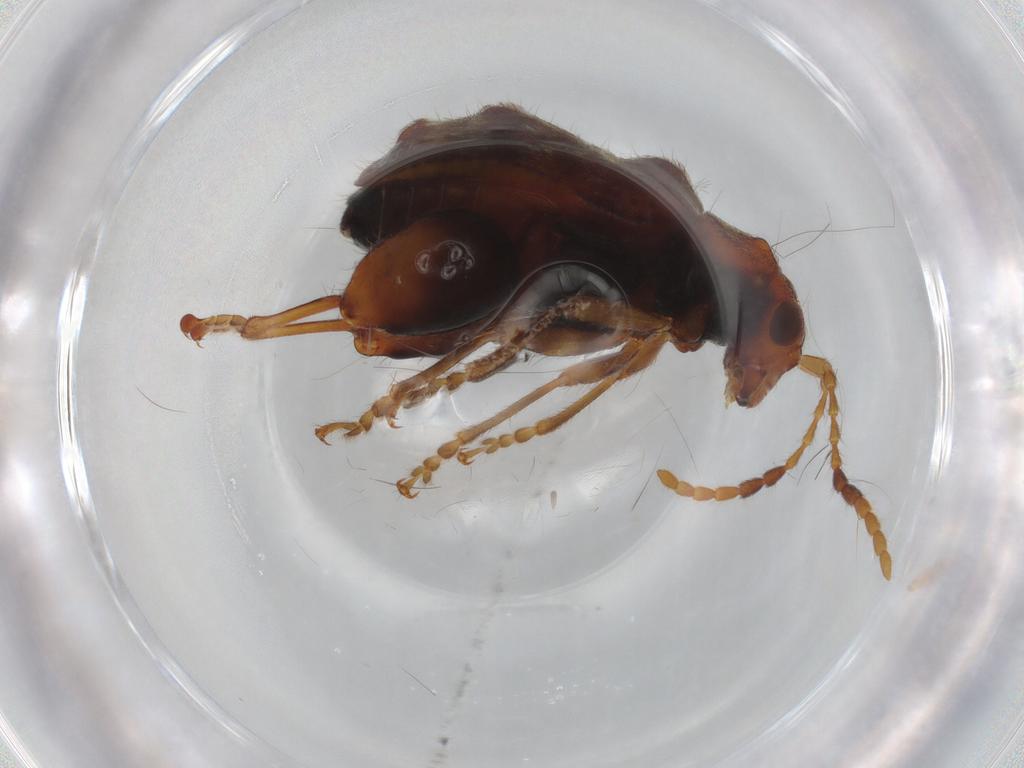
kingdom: Animalia
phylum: Arthropoda
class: Insecta
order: Coleoptera
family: Chrysomelidae
